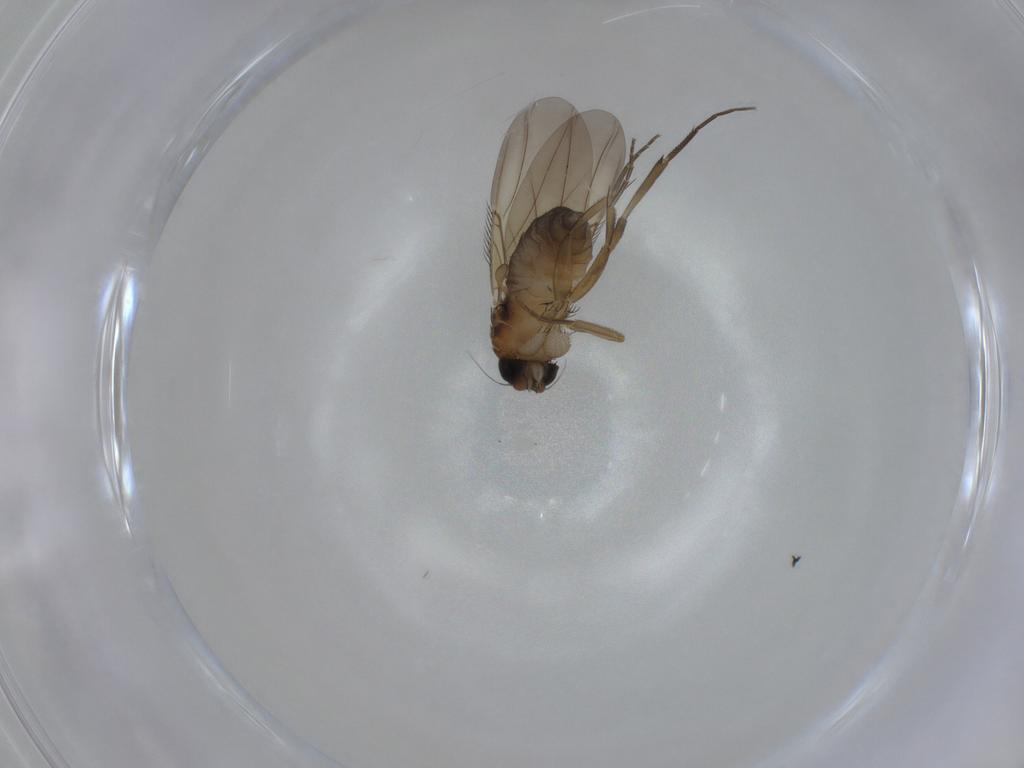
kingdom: Animalia
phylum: Arthropoda
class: Insecta
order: Diptera
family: Phoridae
